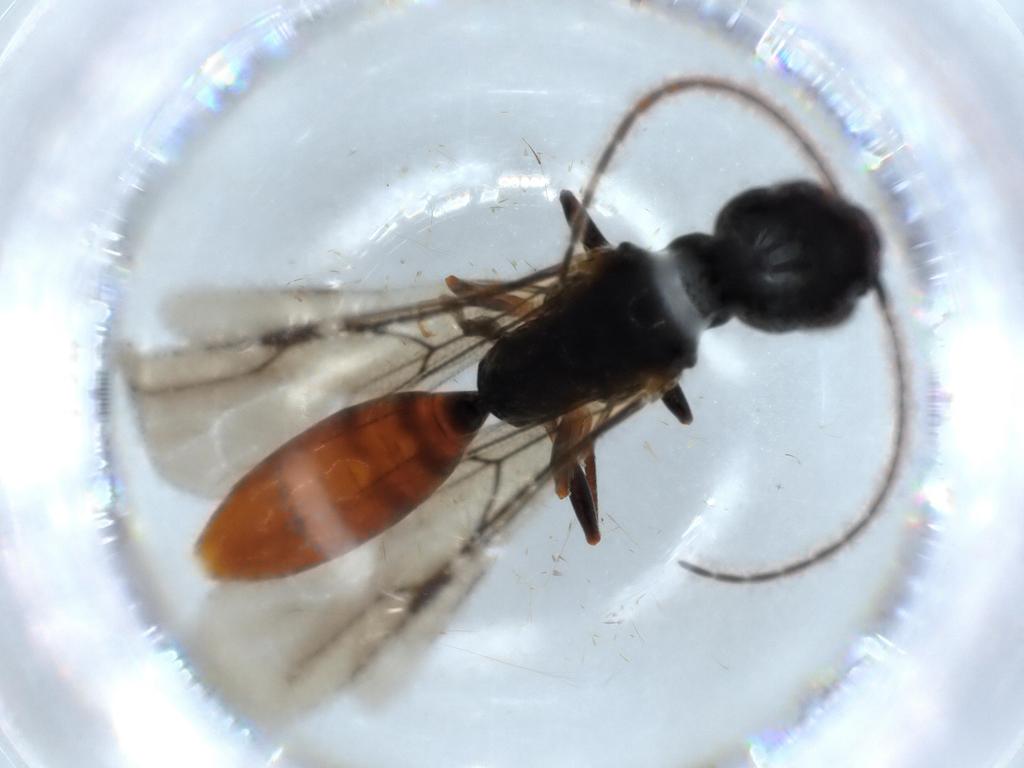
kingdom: Animalia
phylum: Arthropoda
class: Insecta
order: Hymenoptera
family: Bethylidae
